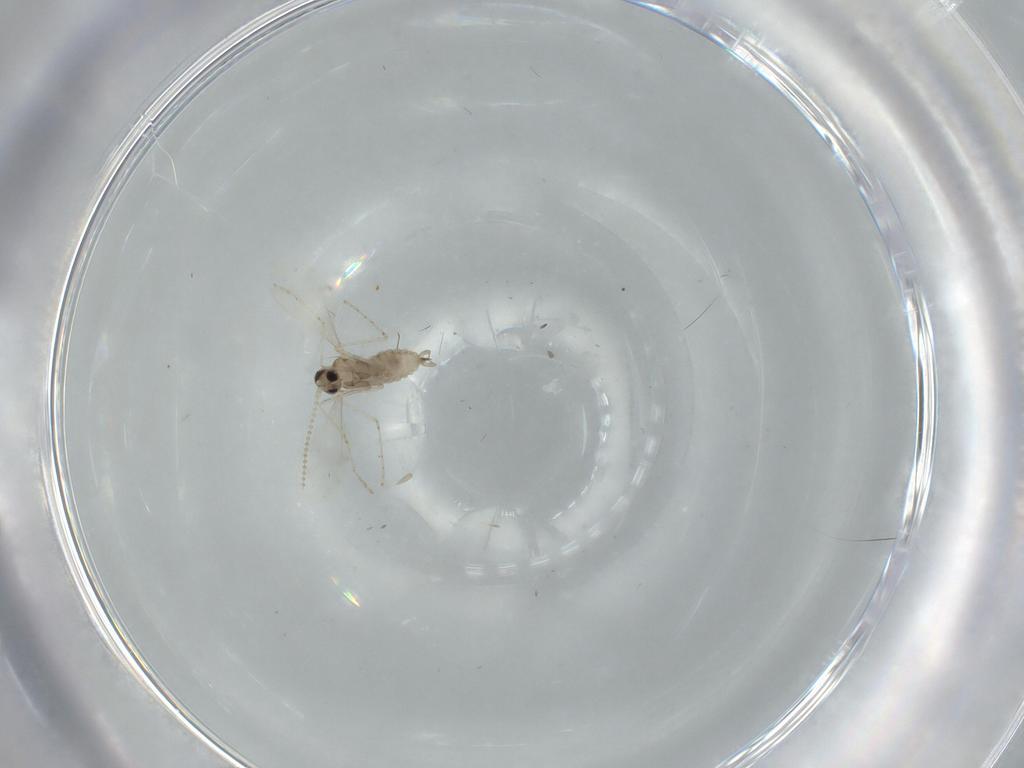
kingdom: Animalia
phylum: Arthropoda
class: Insecta
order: Diptera
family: Cecidomyiidae
